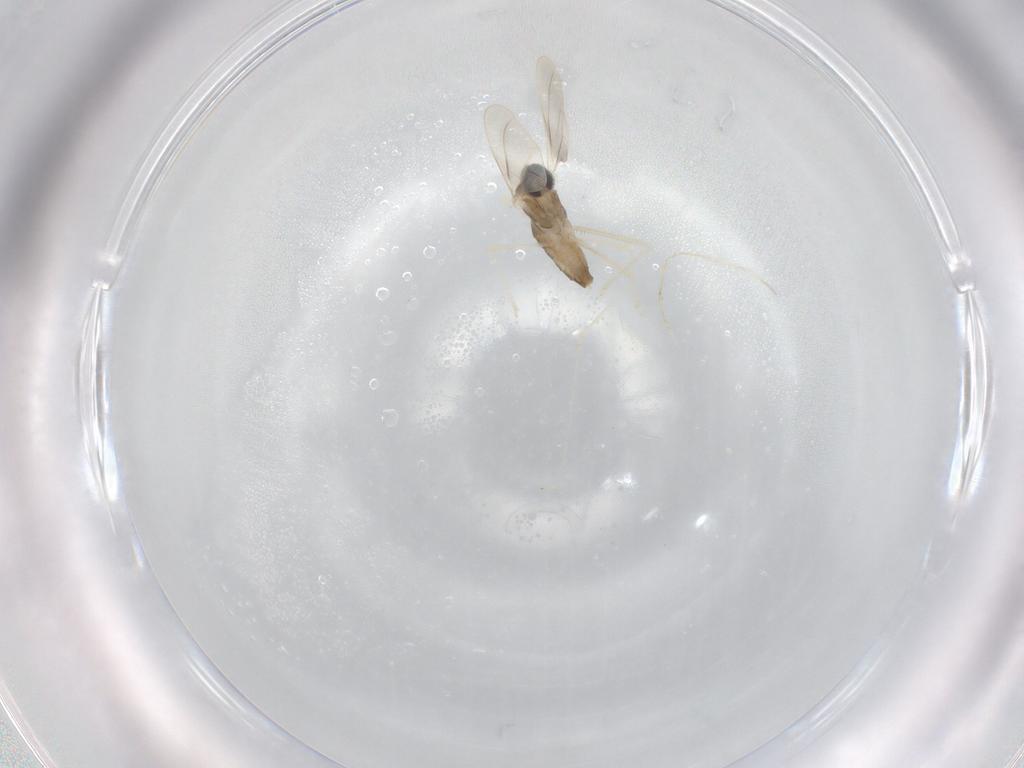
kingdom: Animalia
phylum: Arthropoda
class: Insecta
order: Diptera
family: Cecidomyiidae
